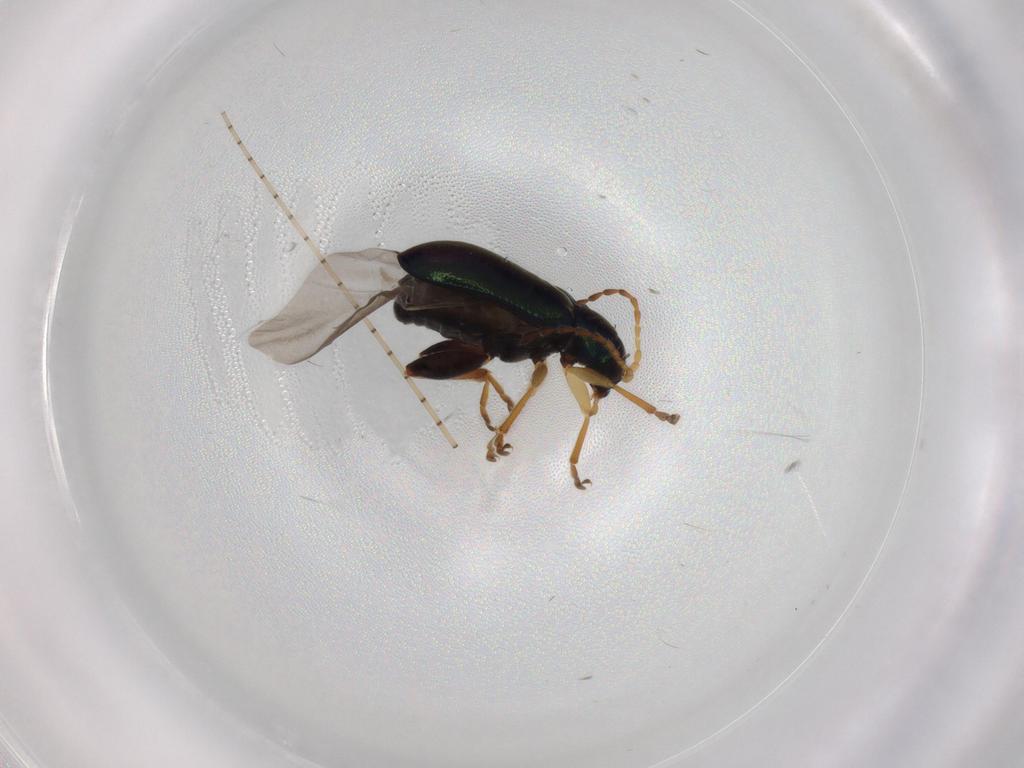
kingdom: Animalia
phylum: Arthropoda
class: Insecta
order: Coleoptera
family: Chrysomelidae
